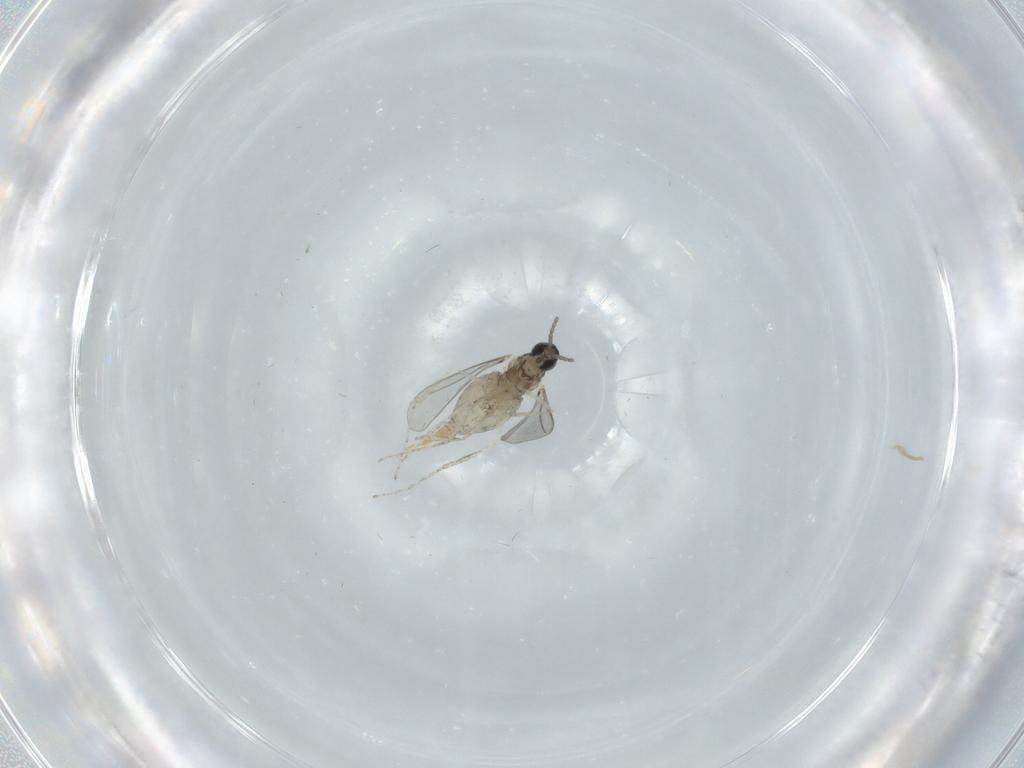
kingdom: Animalia
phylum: Arthropoda
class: Insecta
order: Diptera
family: Cecidomyiidae
